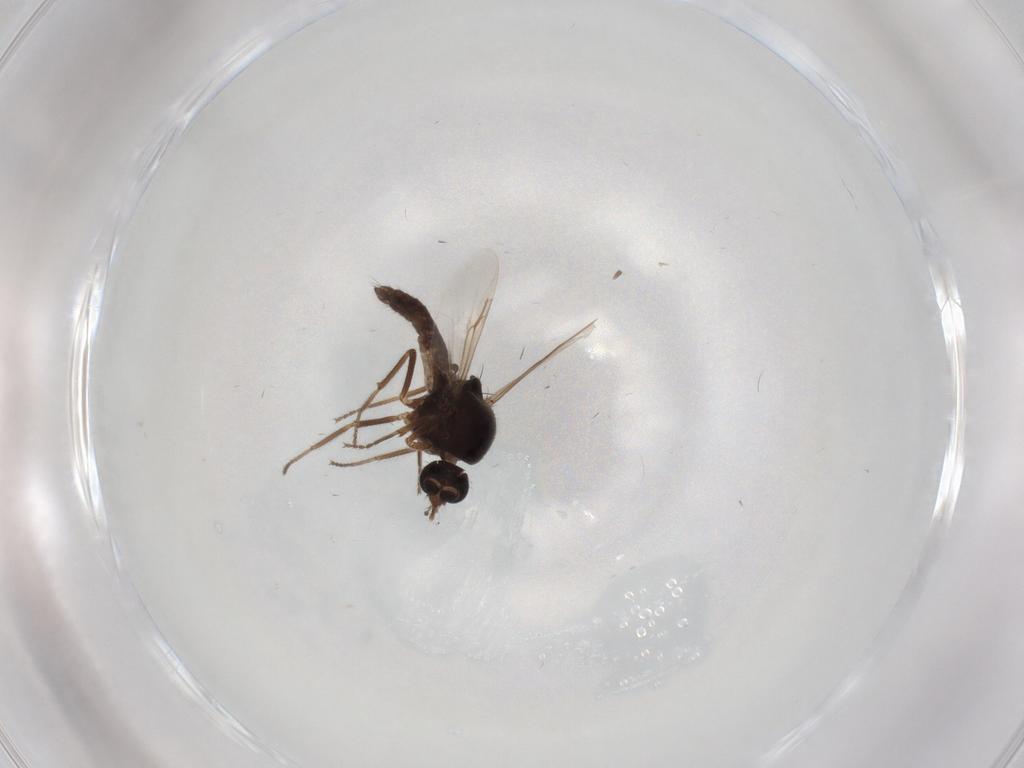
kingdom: Animalia
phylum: Arthropoda
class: Insecta
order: Diptera
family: Ceratopogonidae
